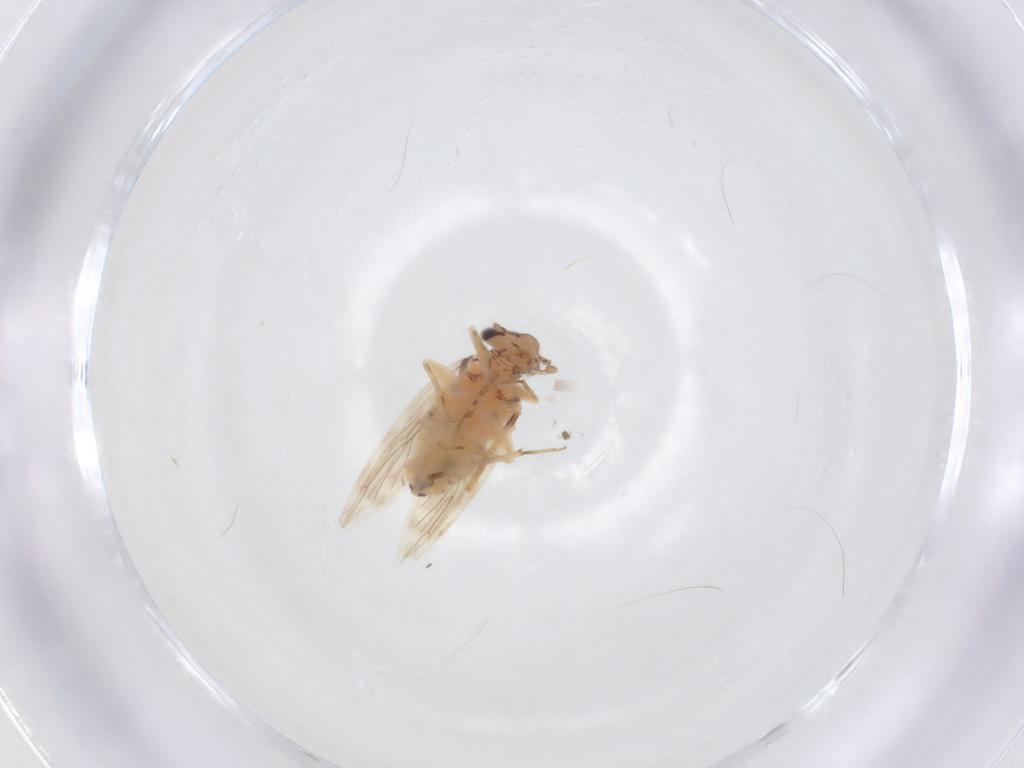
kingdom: Animalia
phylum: Arthropoda
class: Insecta
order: Psocodea
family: Lepidopsocidae
